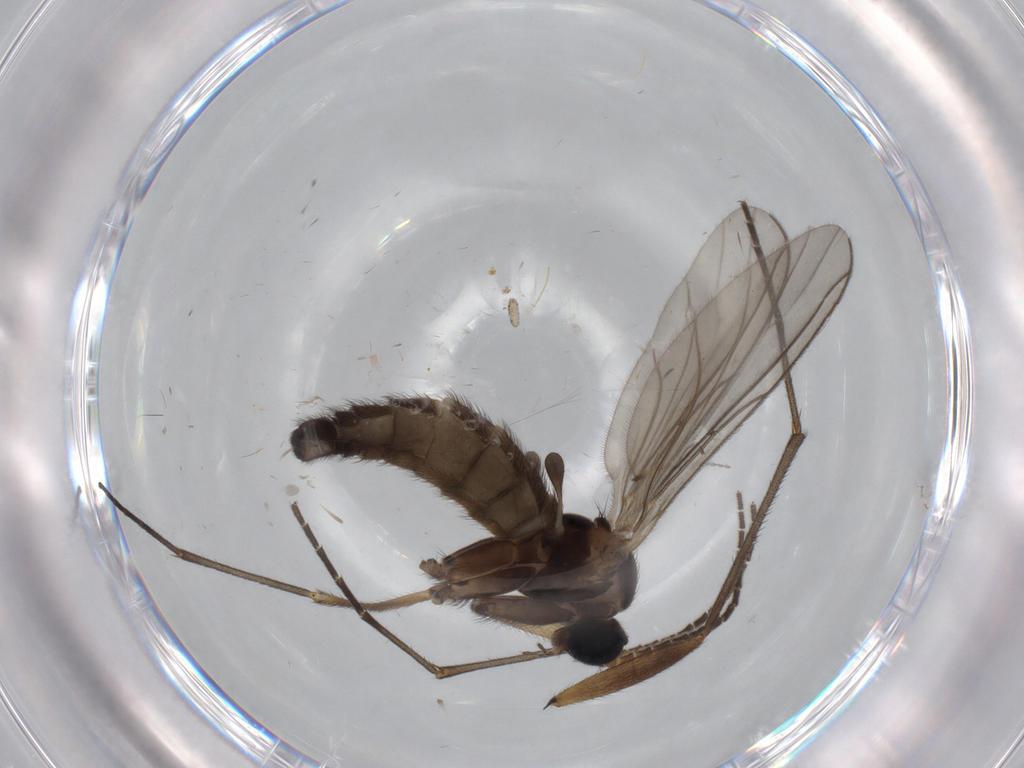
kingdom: Animalia
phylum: Arthropoda
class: Insecta
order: Diptera
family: Sciaridae
